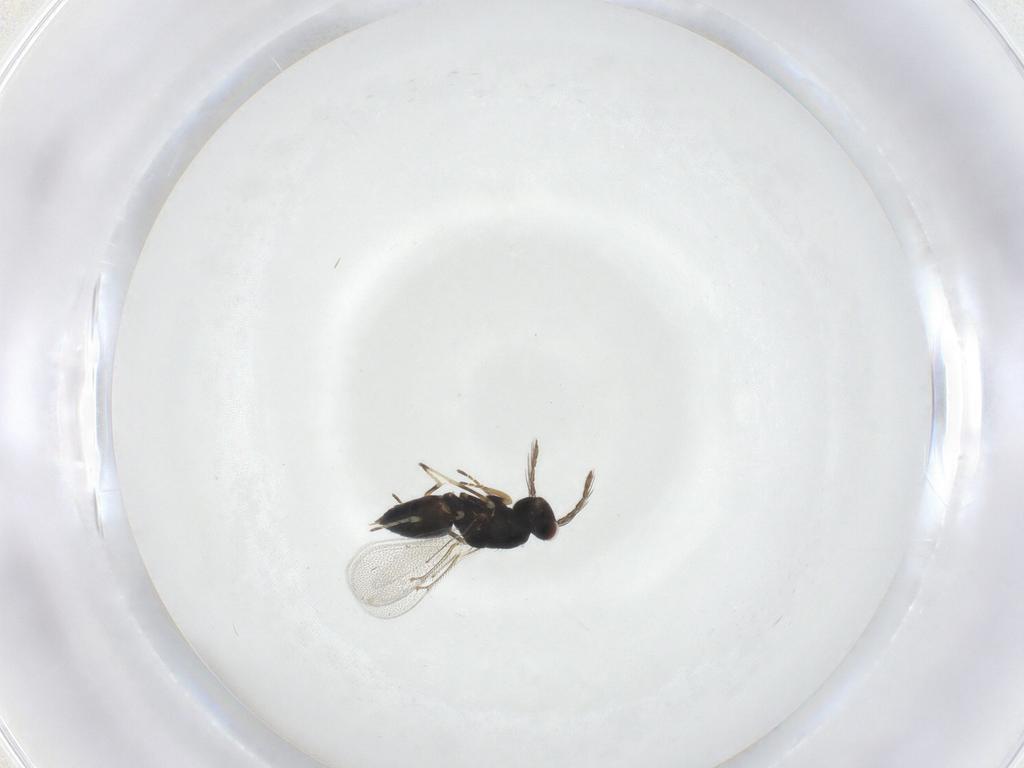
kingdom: Animalia
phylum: Arthropoda
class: Insecta
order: Hymenoptera
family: Eulophidae
